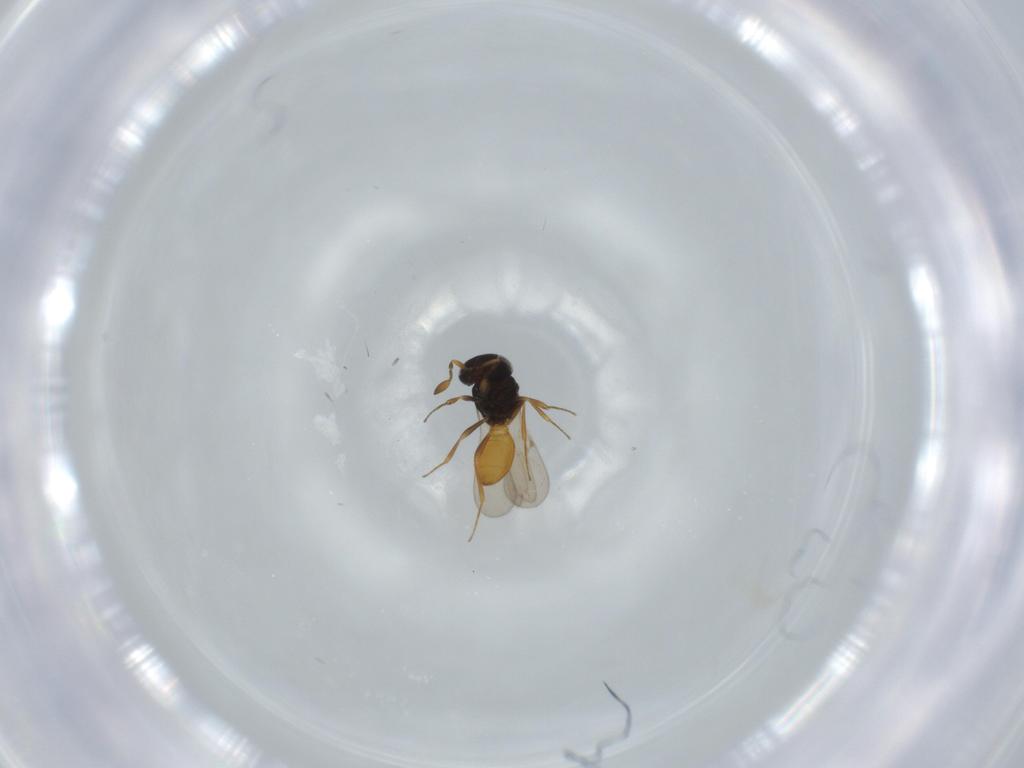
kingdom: Animalia
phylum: Arthropoda
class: Insecta
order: Hymenoptera
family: Scelionidae
